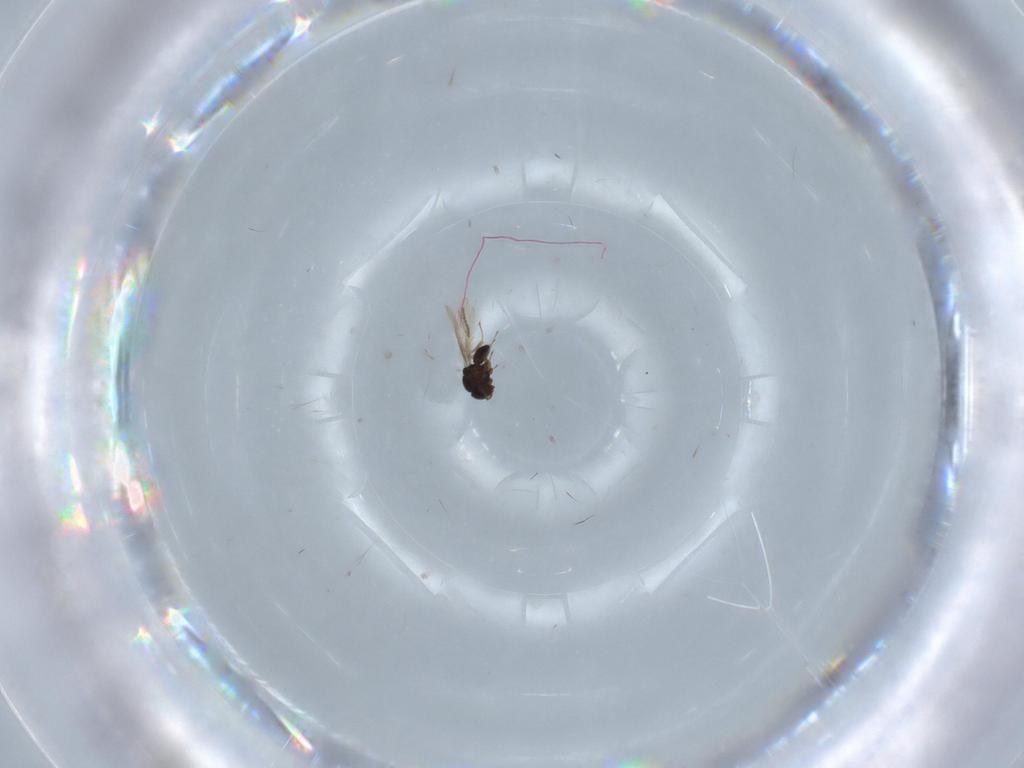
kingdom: Animalia
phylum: Arthropoda
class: Insecta
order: Hymenoptera
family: Scelionidae
